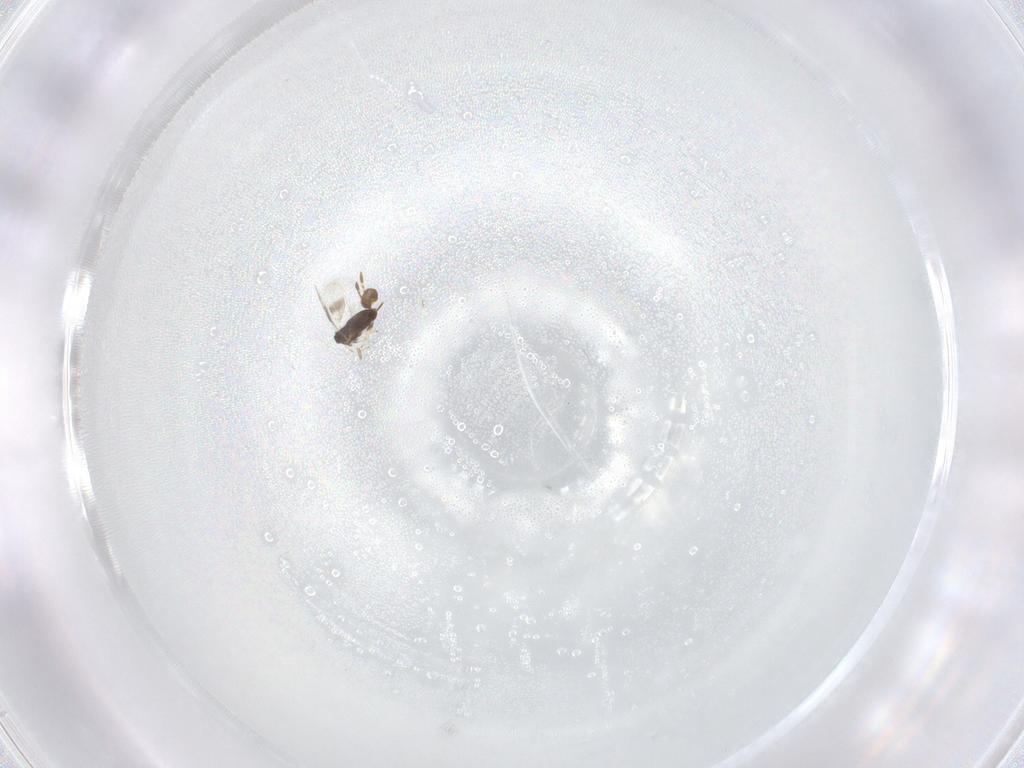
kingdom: Animalia
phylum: Arthropoda
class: Insecta
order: Hymenoptera
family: Azotidae
